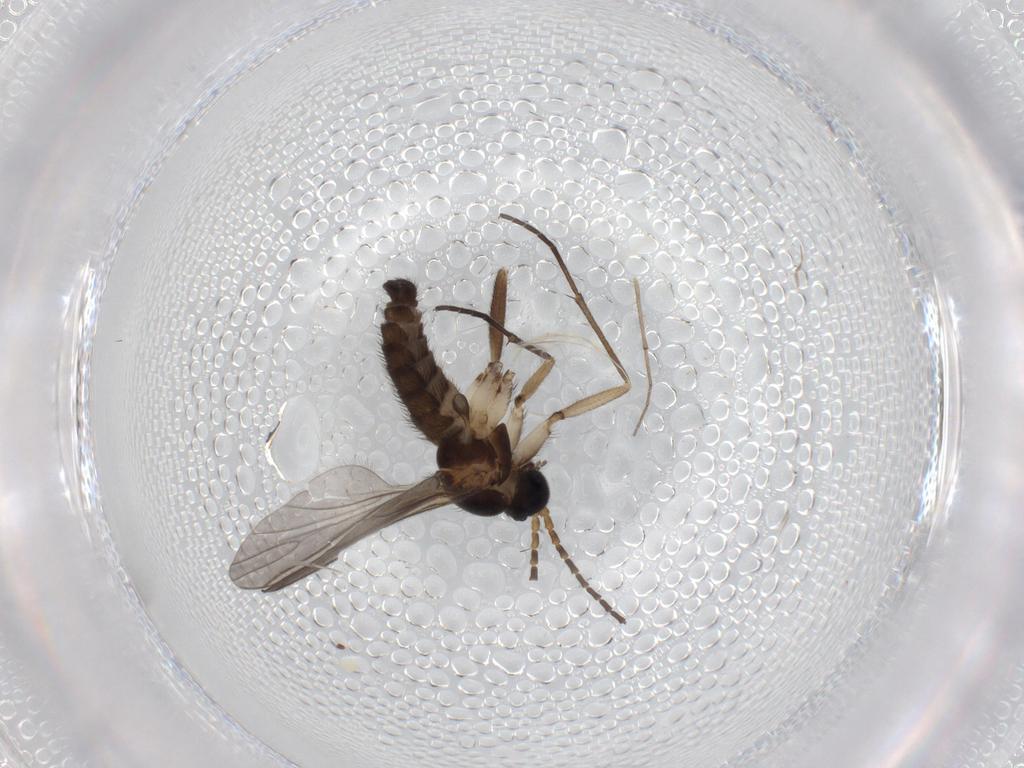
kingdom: Animalia
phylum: Arthropoda
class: Insecta
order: Diptera
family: Sciaridae
